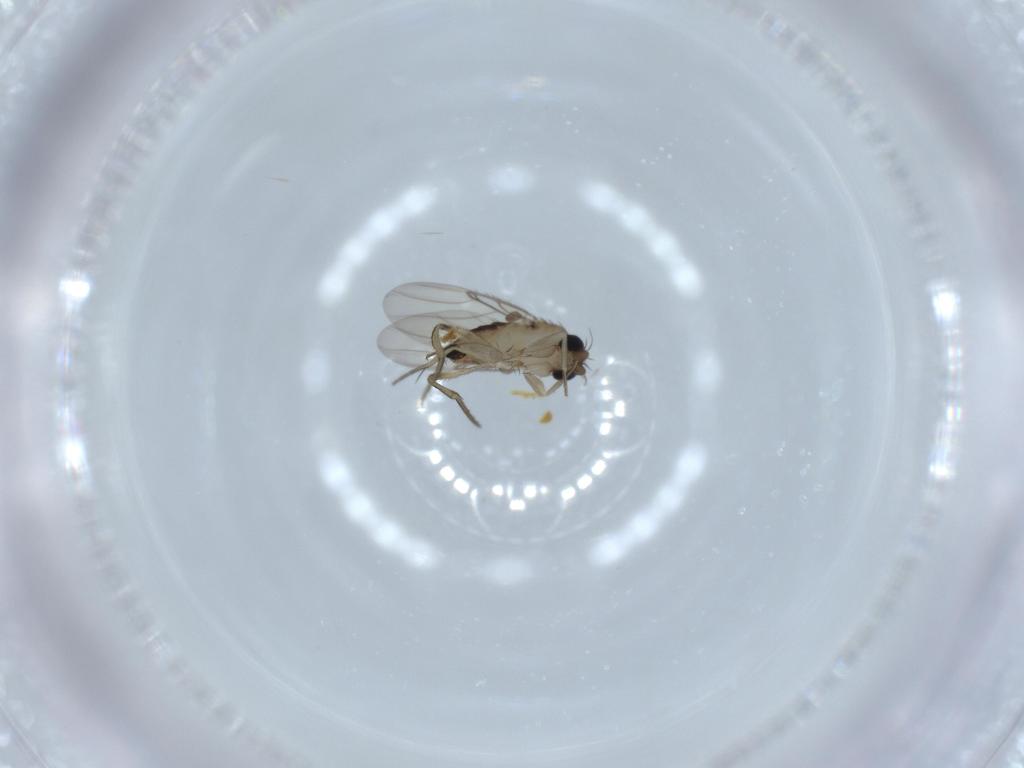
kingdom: Animalia
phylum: Arthropoda
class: Insecta
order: Diptera
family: Phoridae
